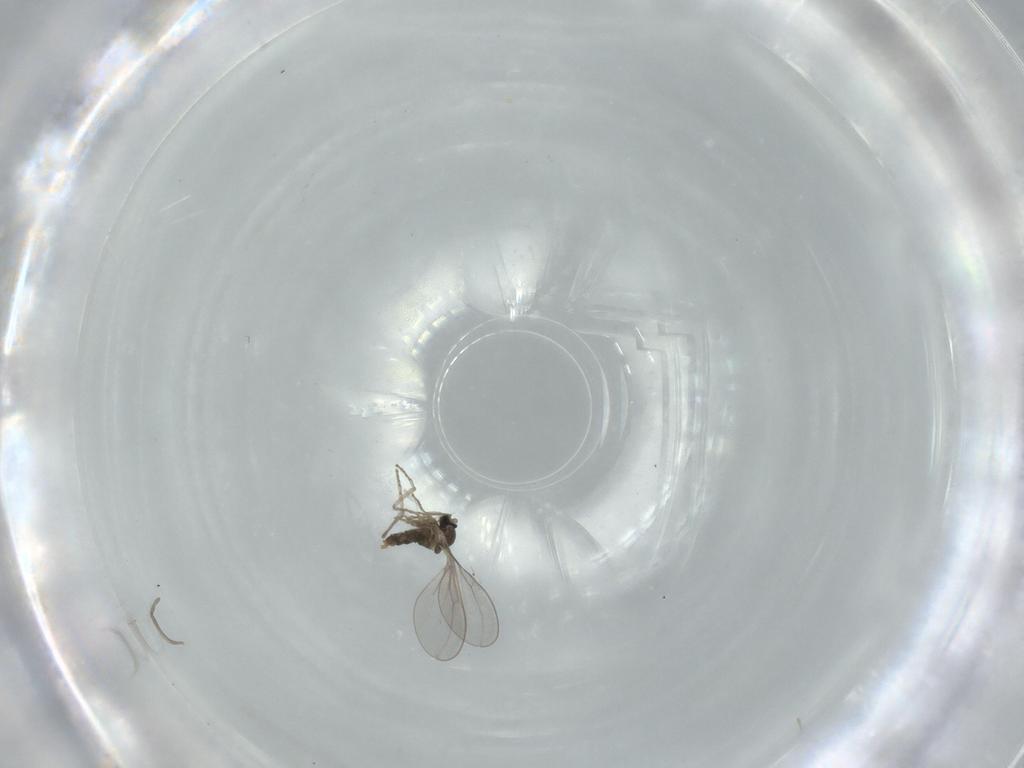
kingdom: Animalia
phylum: Arthropoda
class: Insecta
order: Diptera
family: Cecidomyiidae
